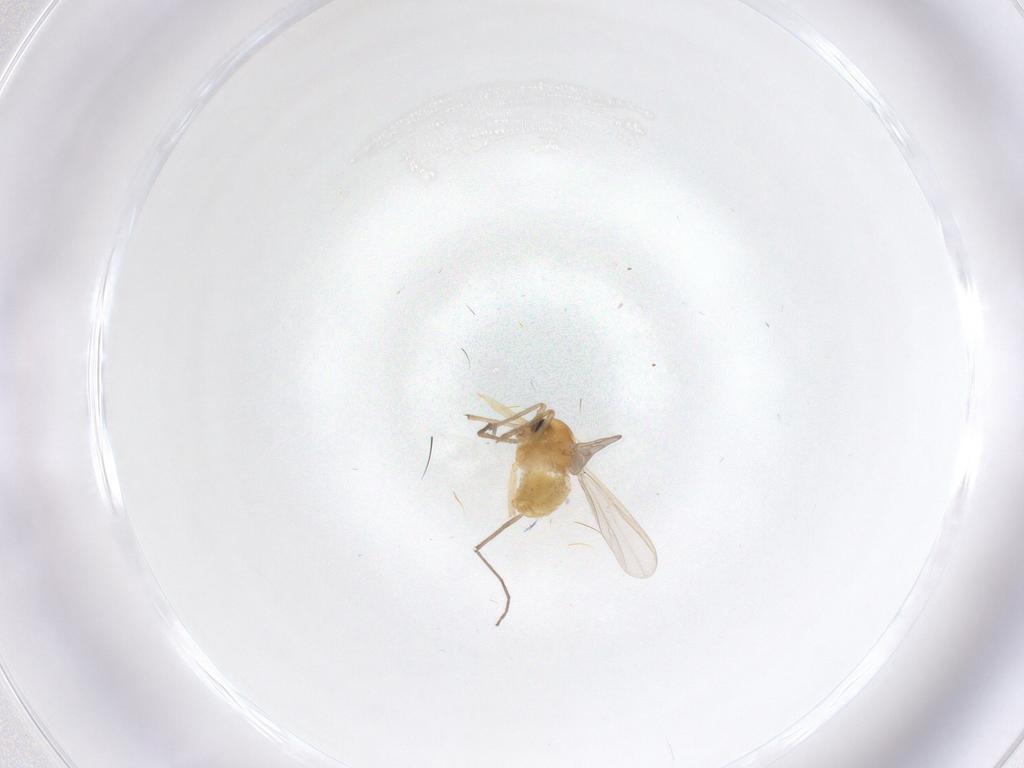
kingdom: Animalia
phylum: Arthropoda
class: Insecta
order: Diptera
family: Chironomidae
